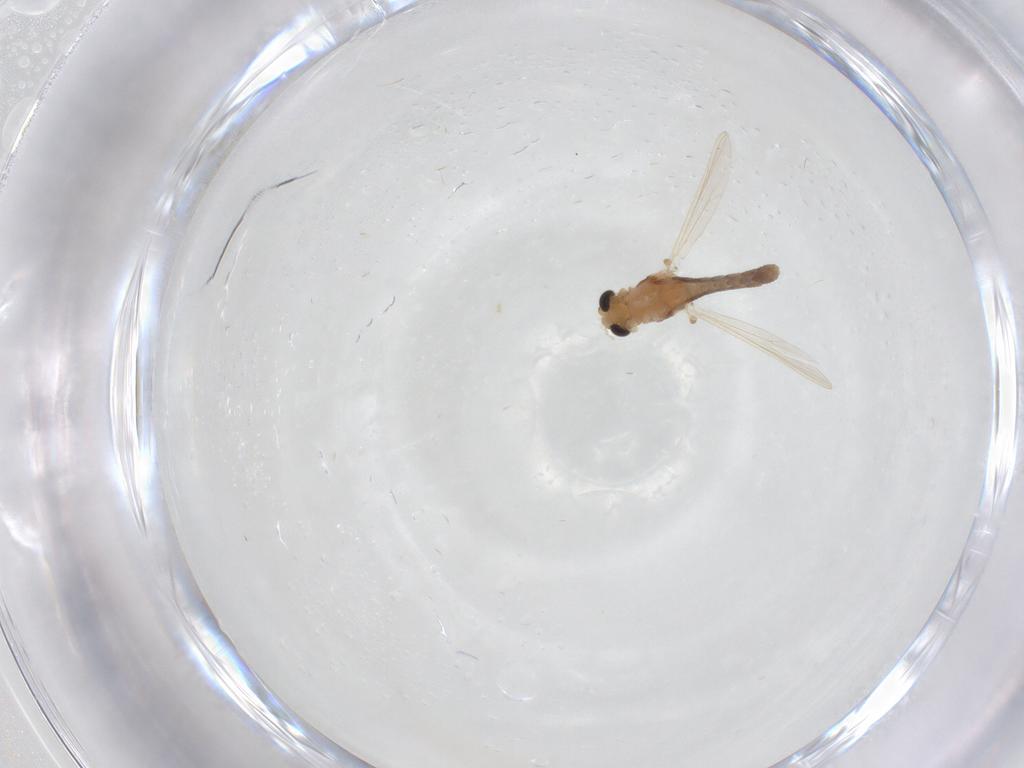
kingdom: Animalia
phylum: Arthropoda
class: Insecta
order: Diptera
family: Chironomidae
